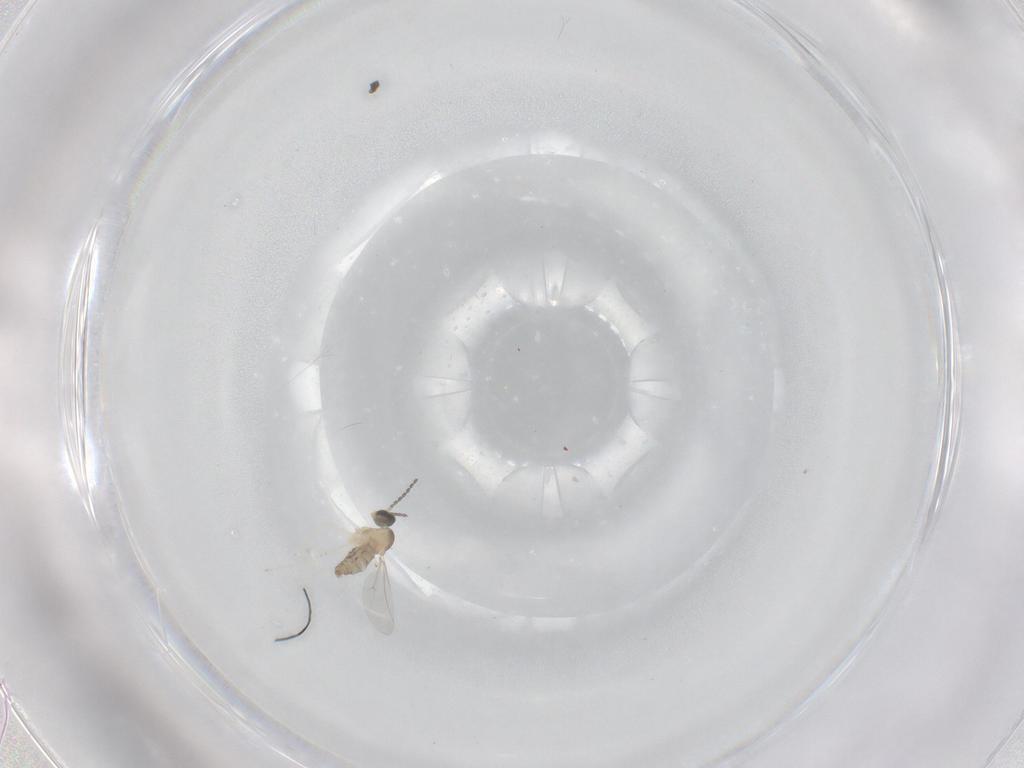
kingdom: Animalia
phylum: Arthropoda
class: Insecta
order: Diptera
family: Cecidomyiidae
